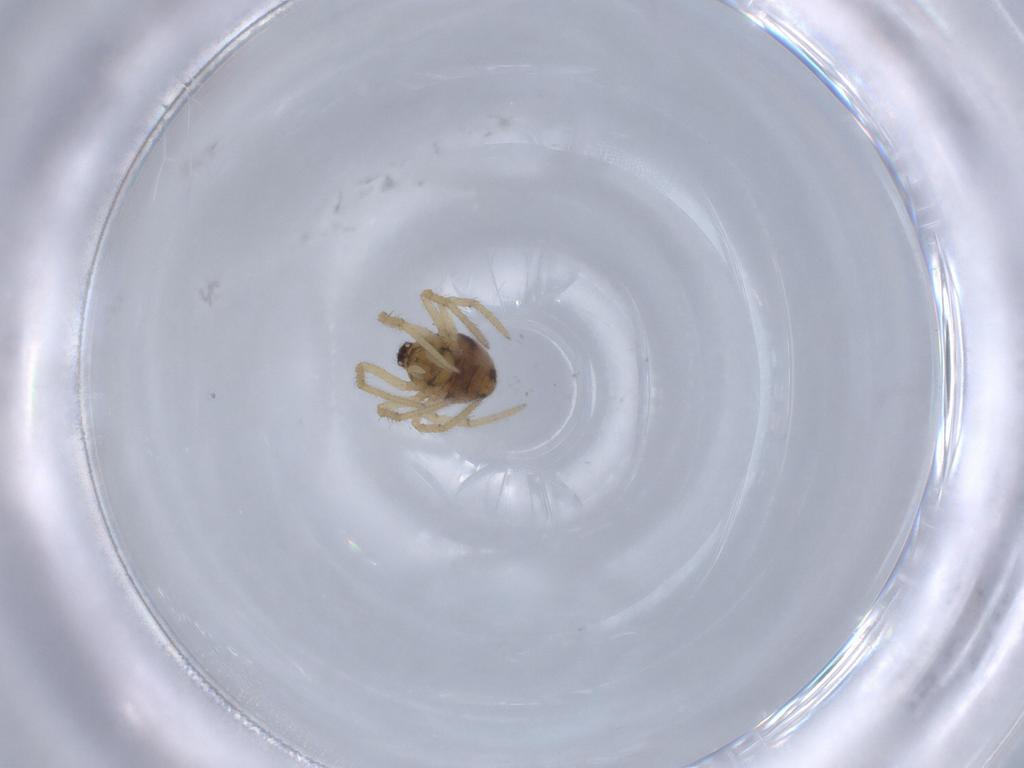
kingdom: Animalia
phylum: Arthropoda
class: Arachnida
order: Araneae
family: Theridiidae
